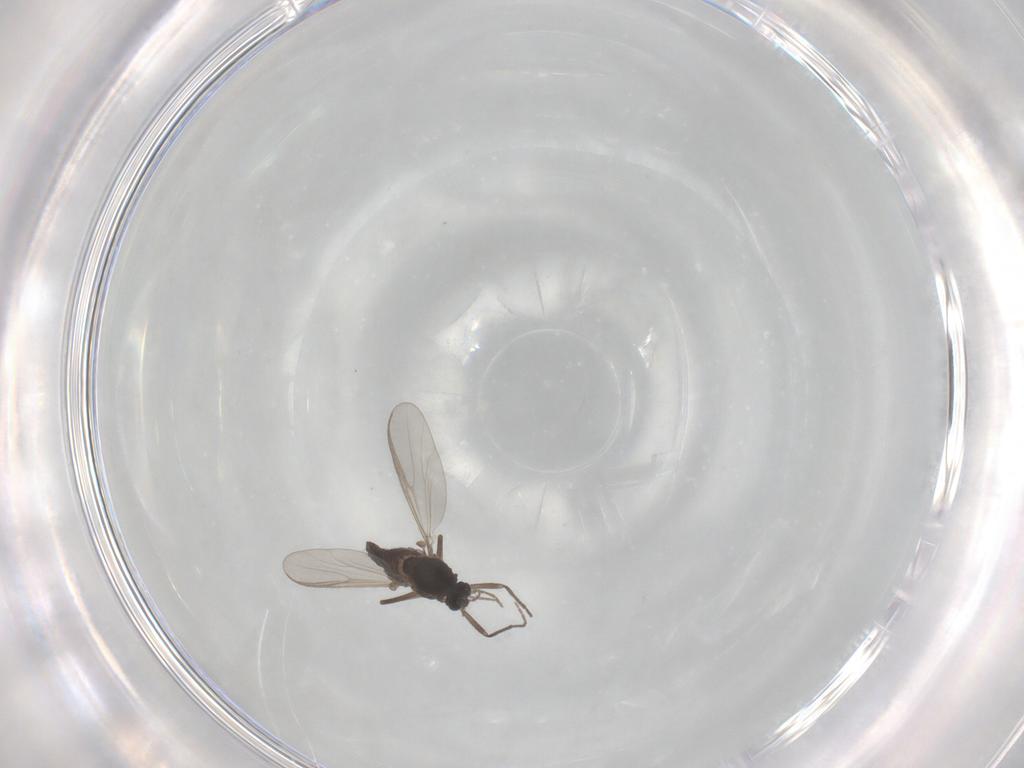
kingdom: Animalia
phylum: Arthropoda
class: Insecta
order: Diptera
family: Chironomidae
